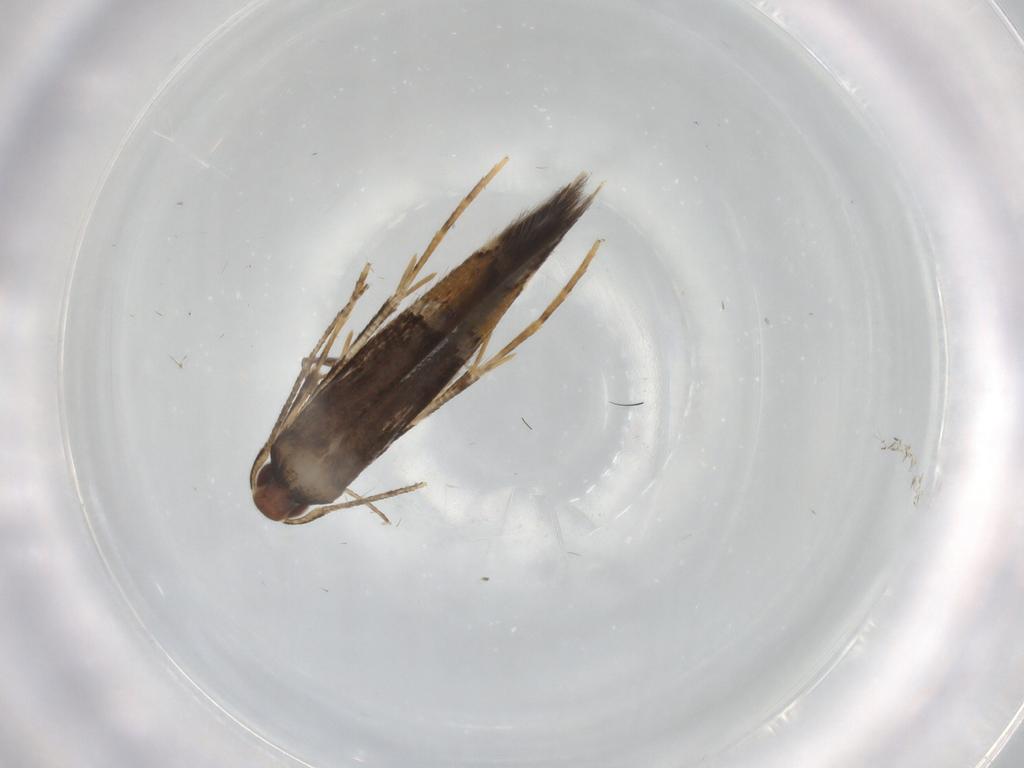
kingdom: Animalia
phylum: Arthropoda
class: Insecta
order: Lepidoptera
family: Cosmopterigidae
